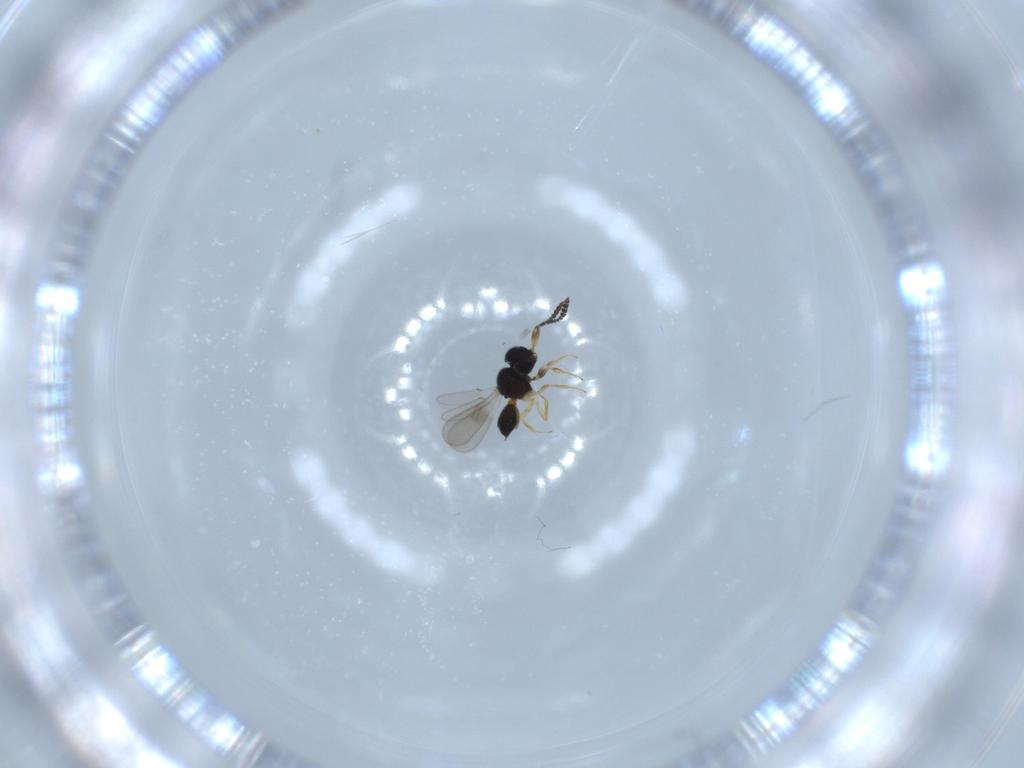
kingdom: Animalia
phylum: Arthropoda
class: Insecta
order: Hymenoptera
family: Scelionidae
